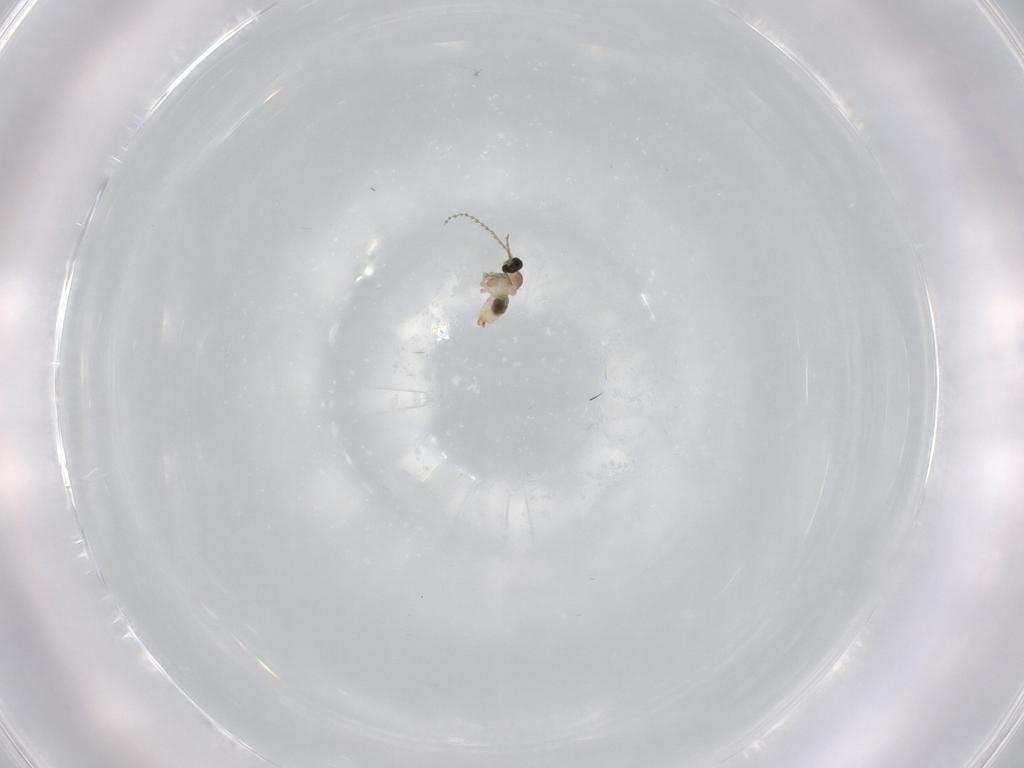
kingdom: Animalia
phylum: Arthropoda
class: Insecta
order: Diptera
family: Cecidomyiidae
